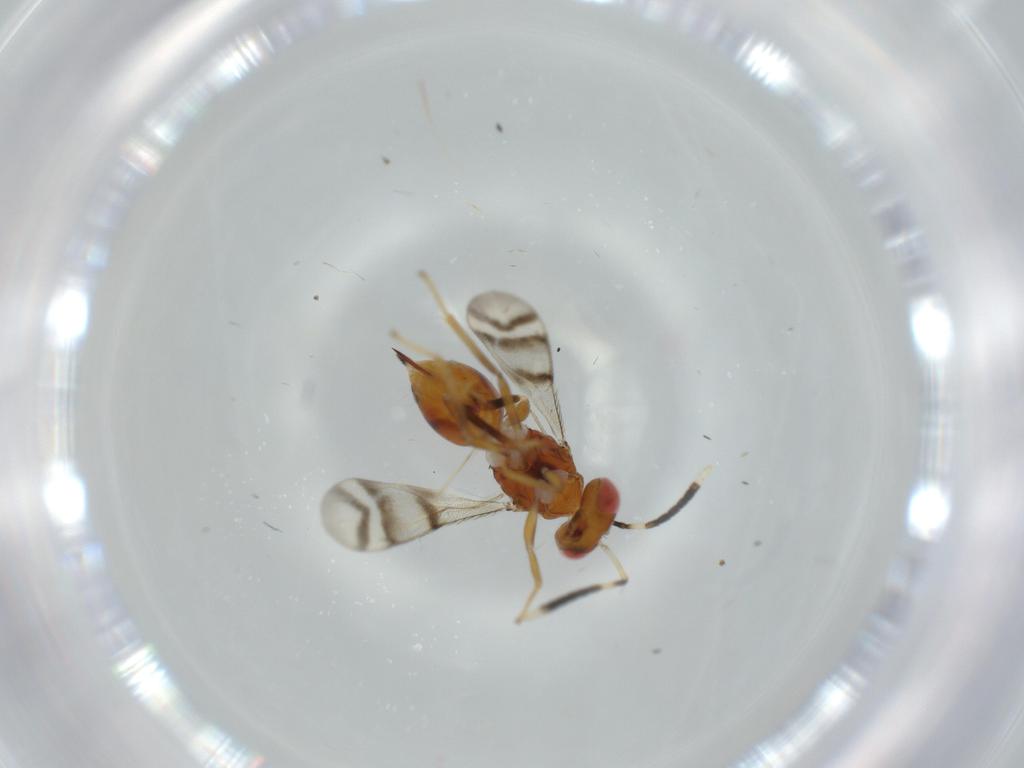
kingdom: Animalia
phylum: Arthropoda
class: Insecta
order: Hymenoptera
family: Diparidae
